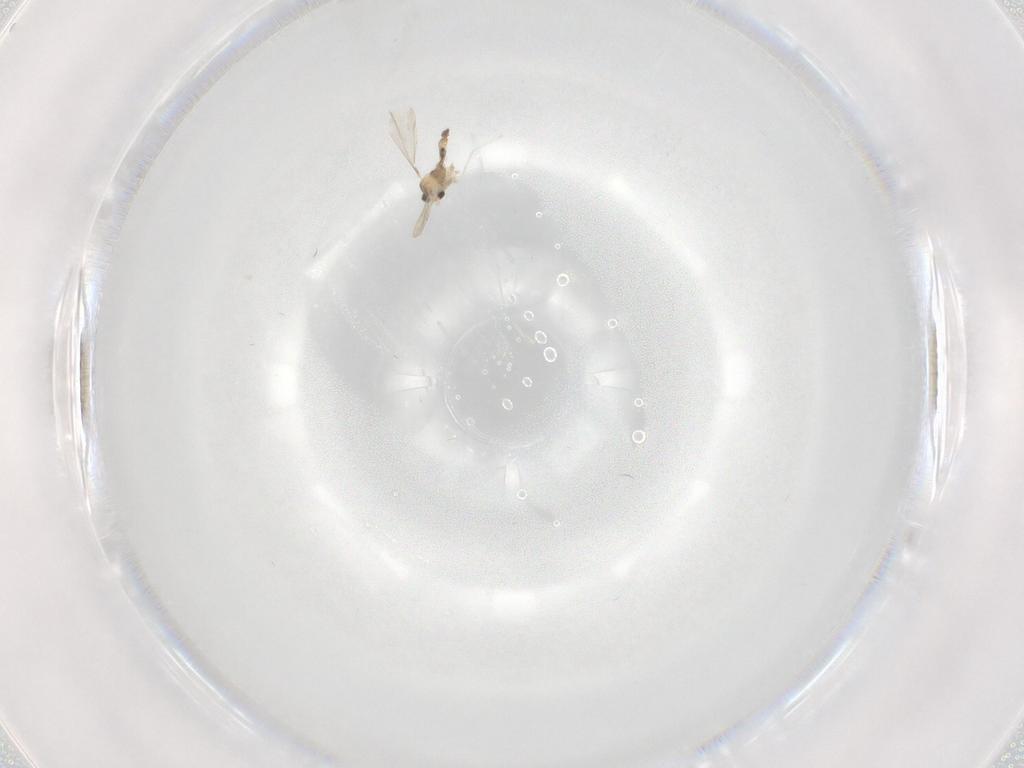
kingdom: Animalia
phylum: Arthropoda
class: Insecta
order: Diptera
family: Cecidomyiidae
